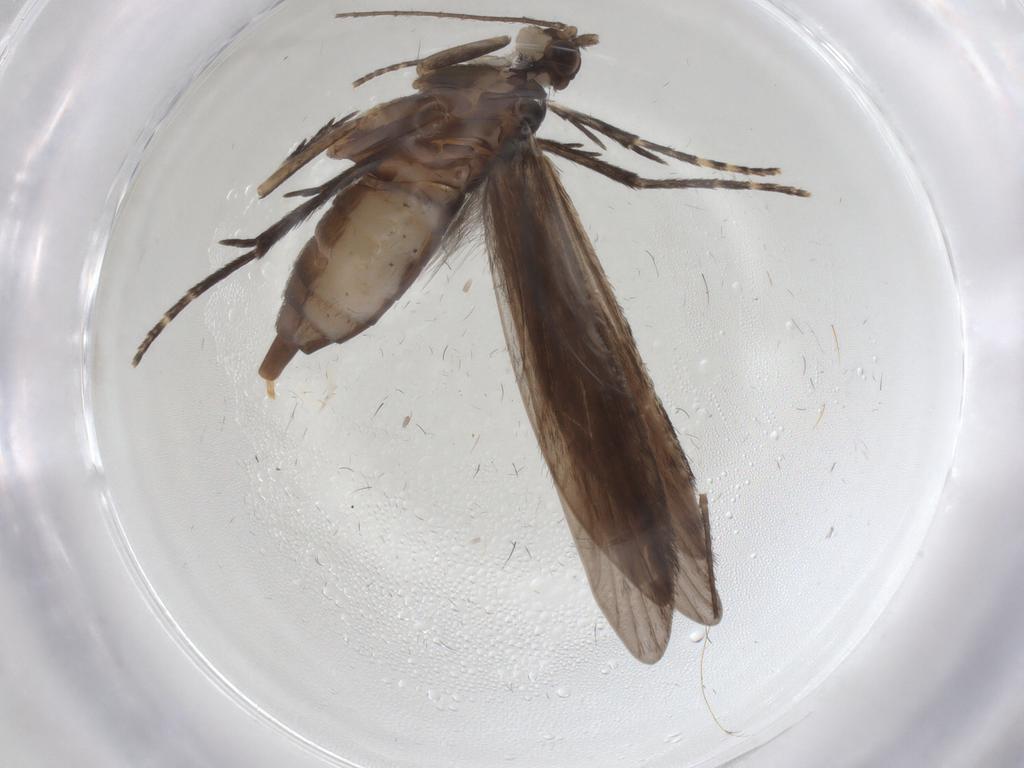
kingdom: Animalia
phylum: Arthropoda
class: Insecta
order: Trichoptera
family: Xiphocentronidae
